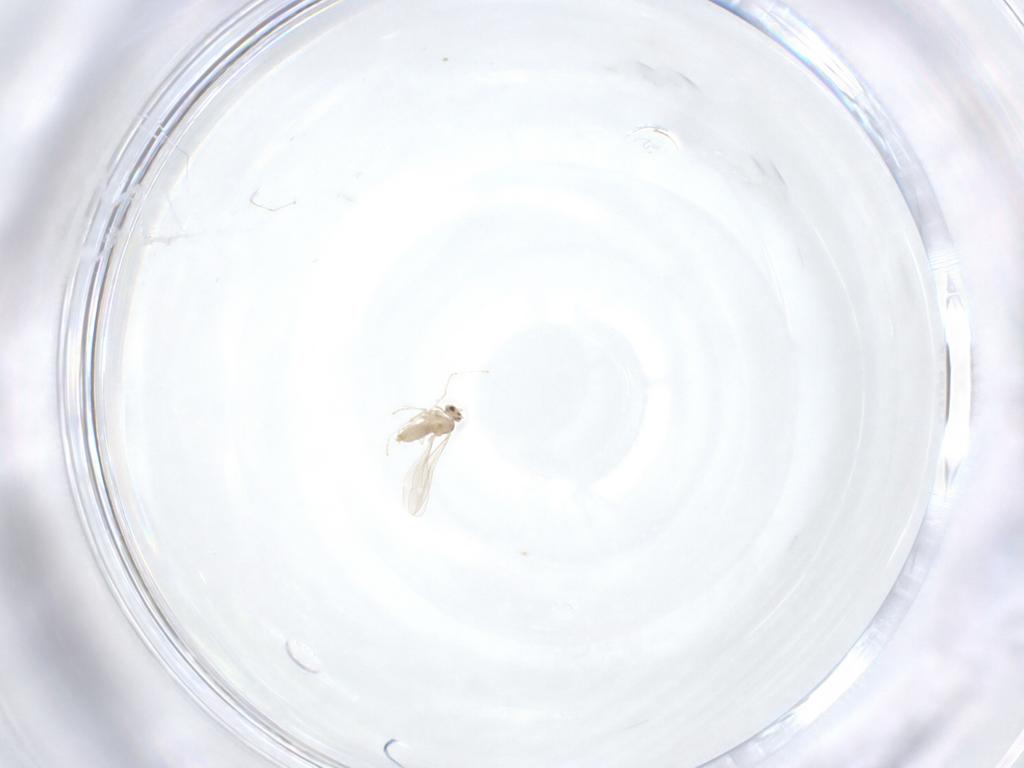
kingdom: Animalia
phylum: Arthropoda
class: Insecta
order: Diptera
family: Cecidomyiidae
